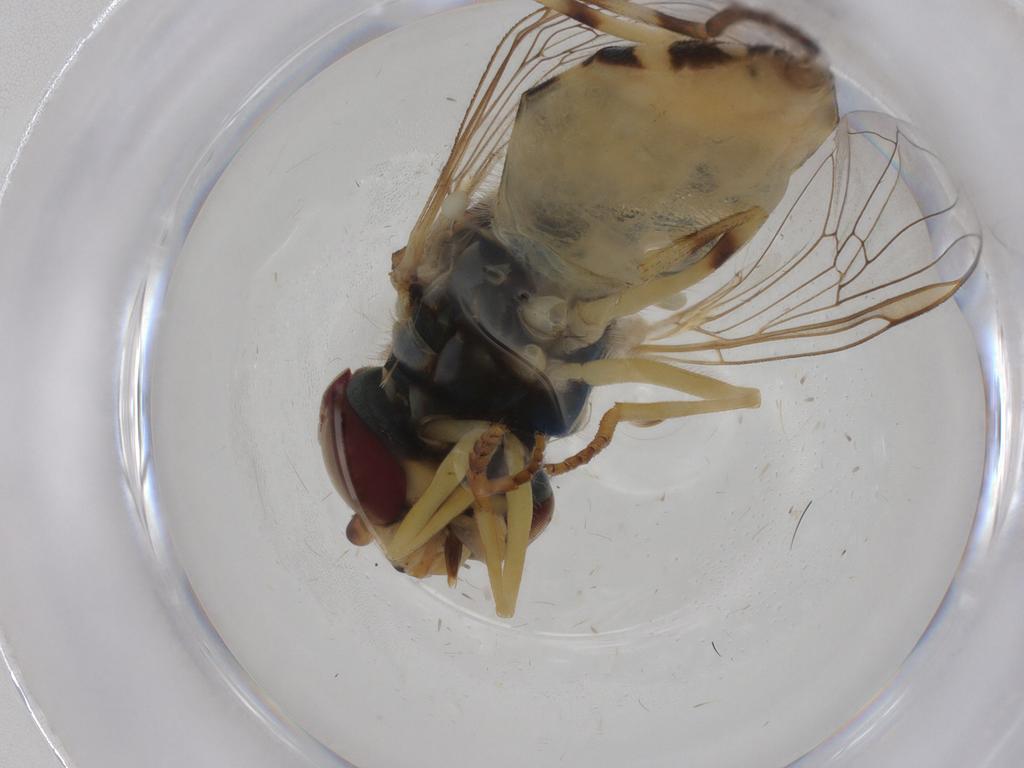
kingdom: Animalia
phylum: Arthropoda
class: Insecta
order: Diptera
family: Syrphidae
